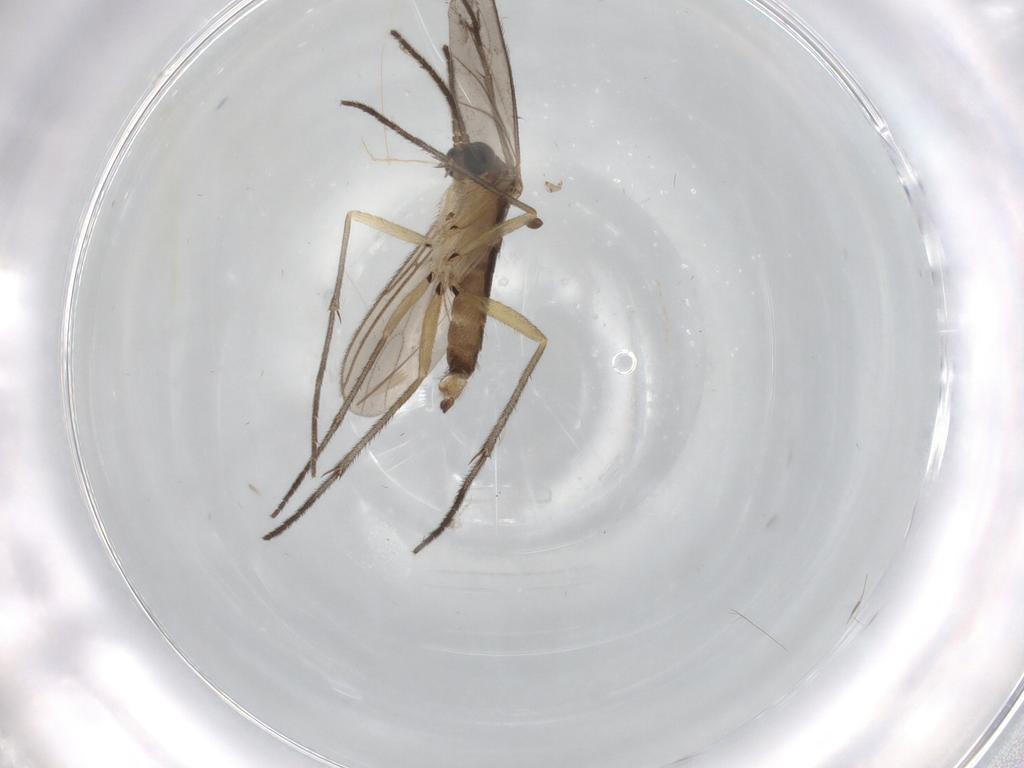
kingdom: Animalia
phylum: Arthropoda
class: Insecta
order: Diptera
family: Sciaridae
